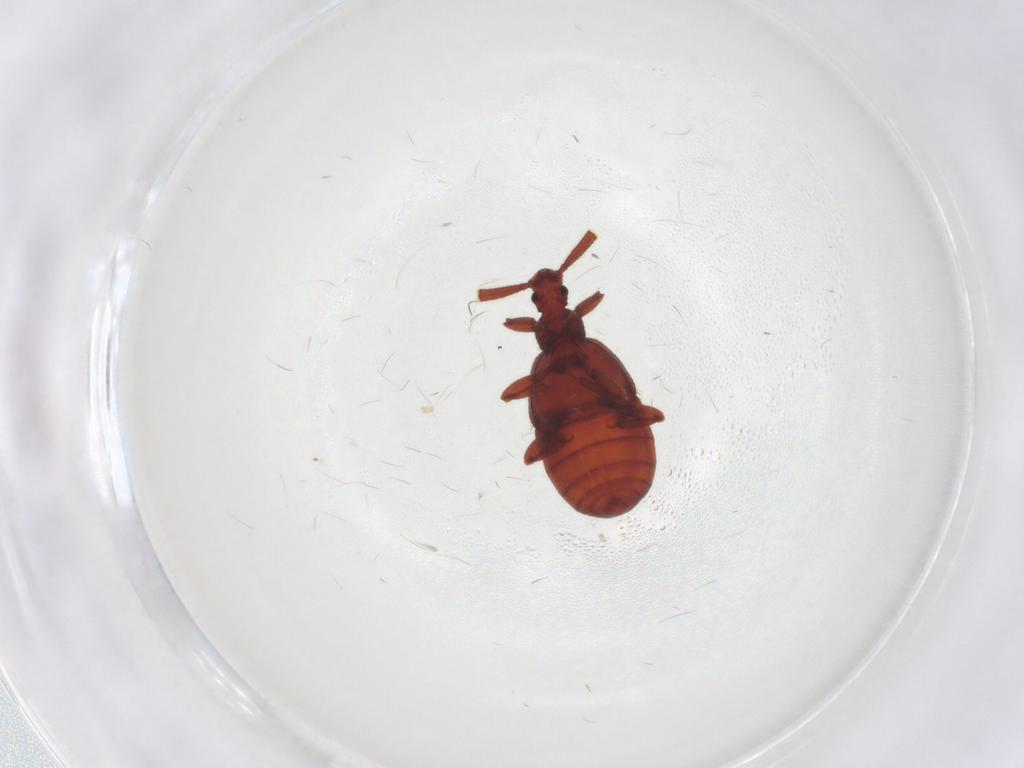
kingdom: Animalia
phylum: Arthropoda
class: Insecta
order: Coleoptera
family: Staphylinidae
